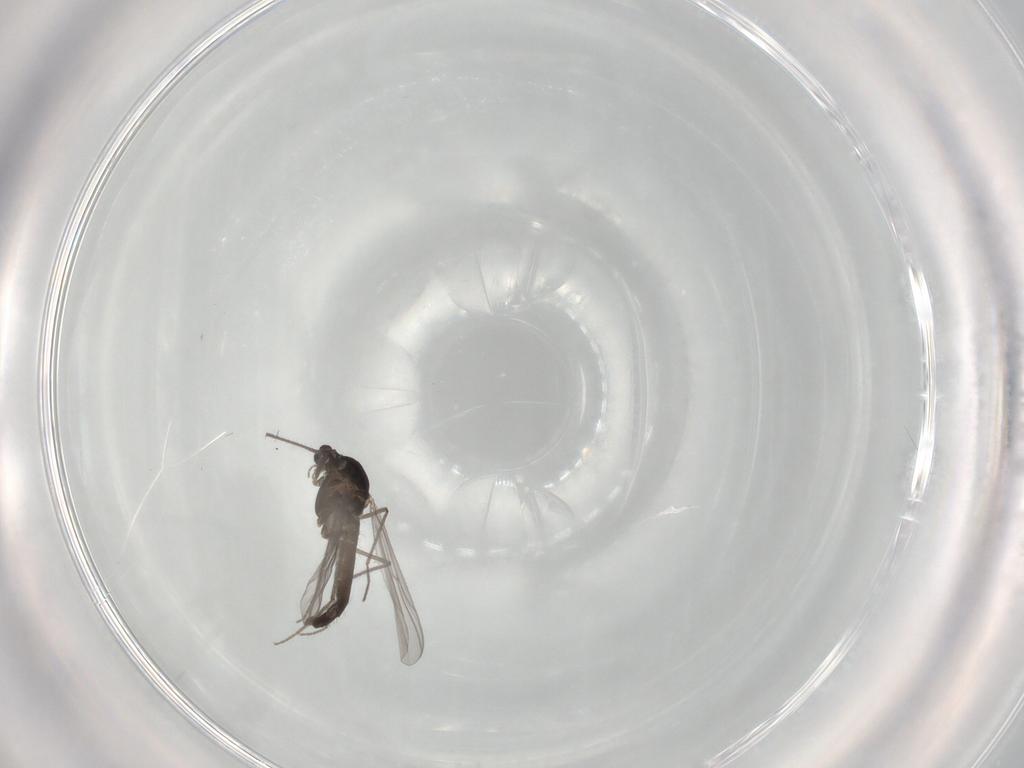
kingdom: Animalia
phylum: Arthropoda
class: Insecta
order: Diptera
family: Chironomidae
